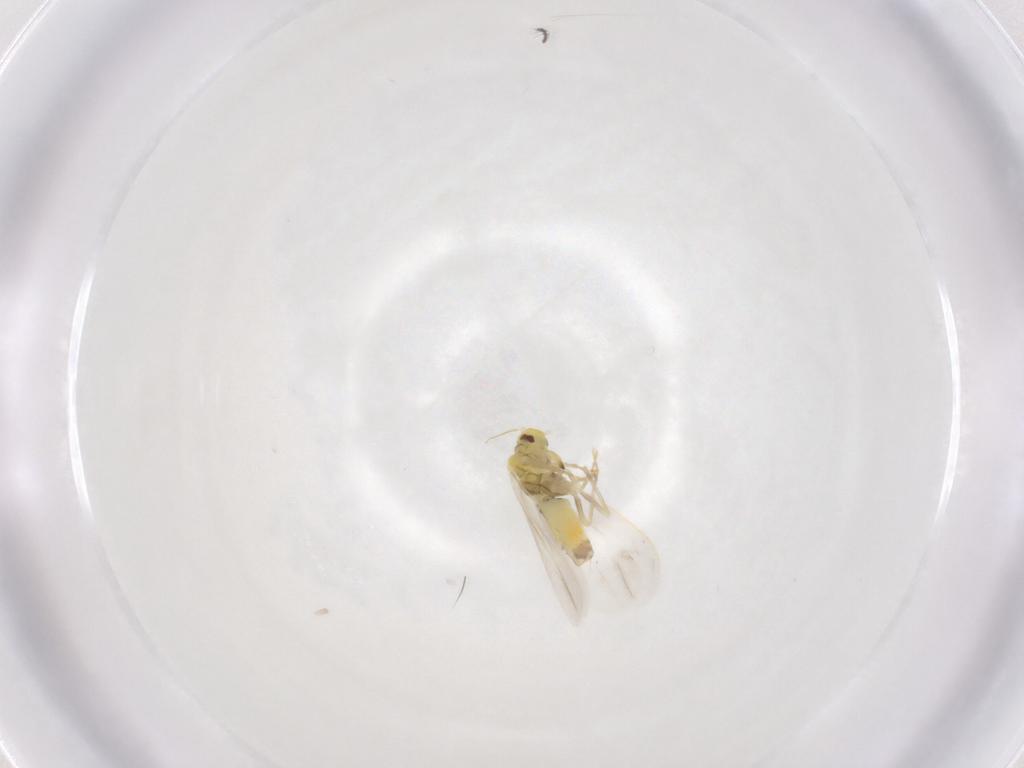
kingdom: Animalia
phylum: Arthropoda
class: Insecta
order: Hemiptera
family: Aleyrodidae
